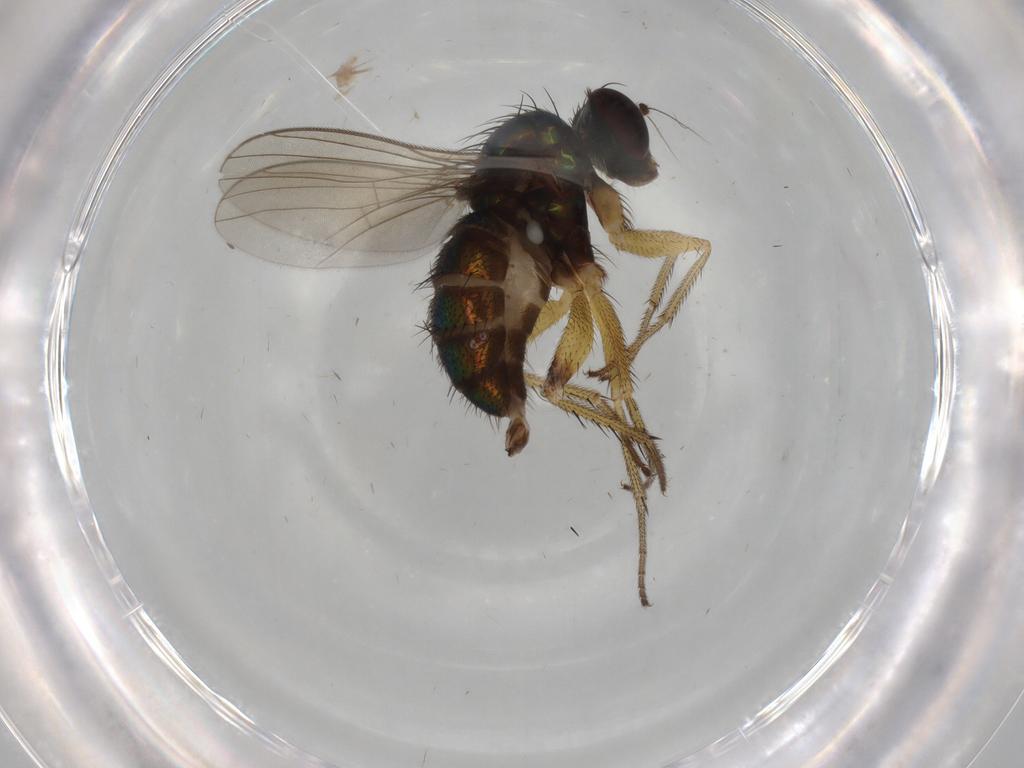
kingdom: Animalia
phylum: Arthropoda
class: Insecta
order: Diptera
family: Dolichopodidae
